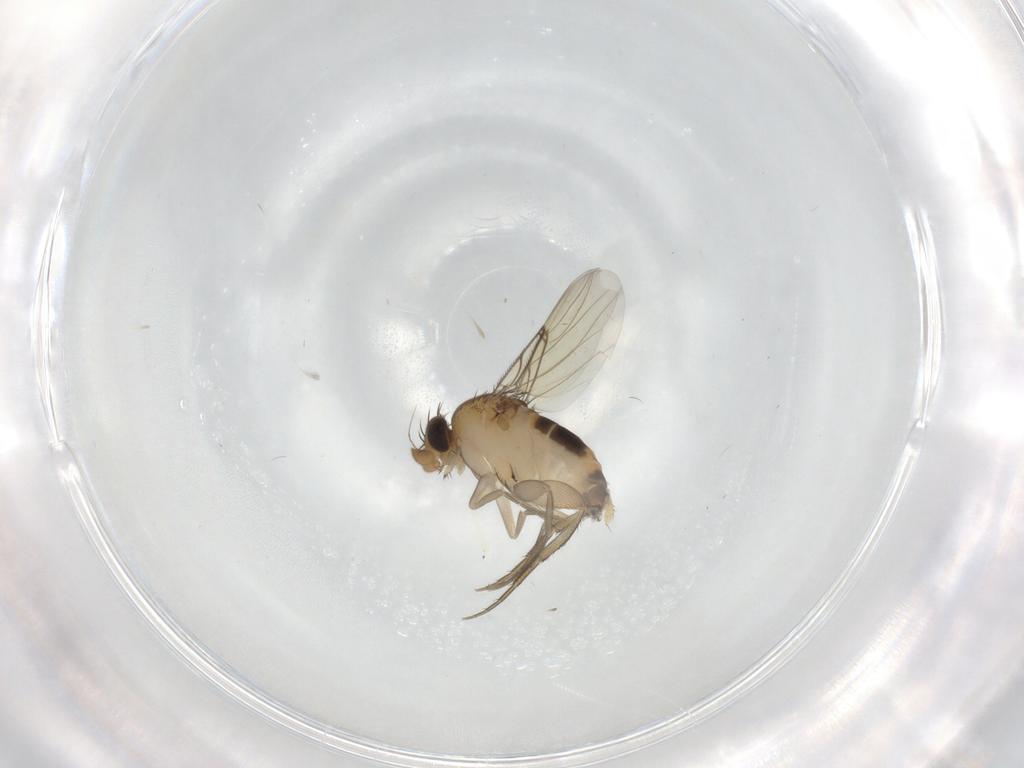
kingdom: Animalia
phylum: Arthropoda
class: Insecta
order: Diptera
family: Phoridae
